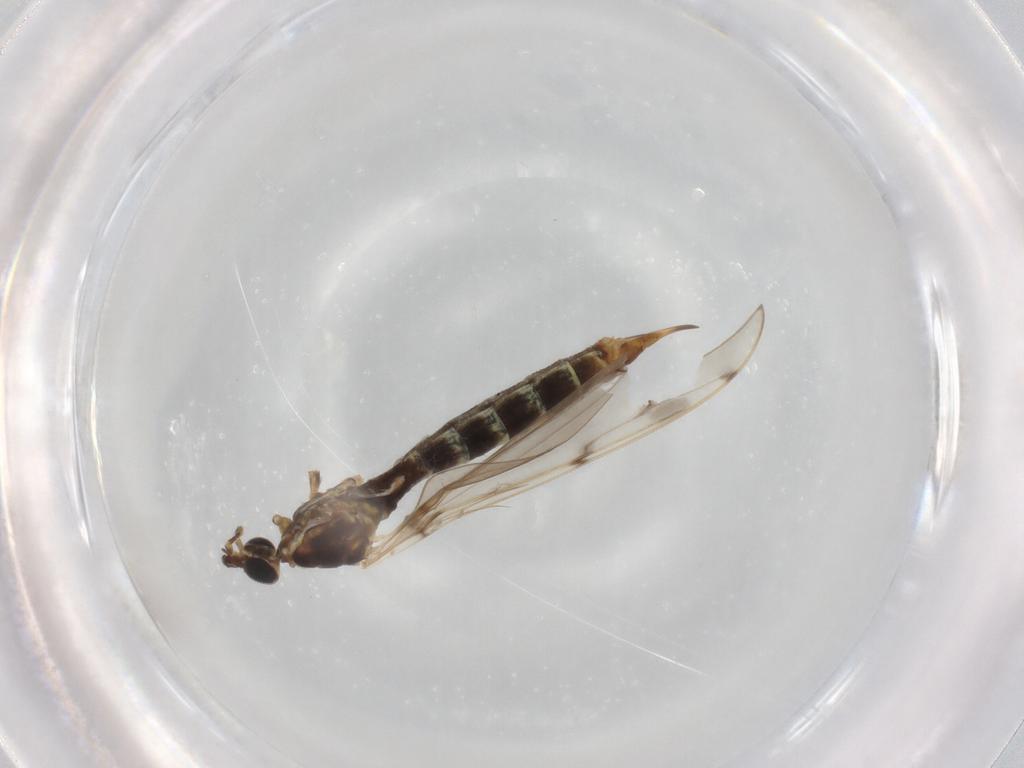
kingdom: Animalia
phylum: Arthropoda
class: Insecta
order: Diptera
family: Limoniidae
